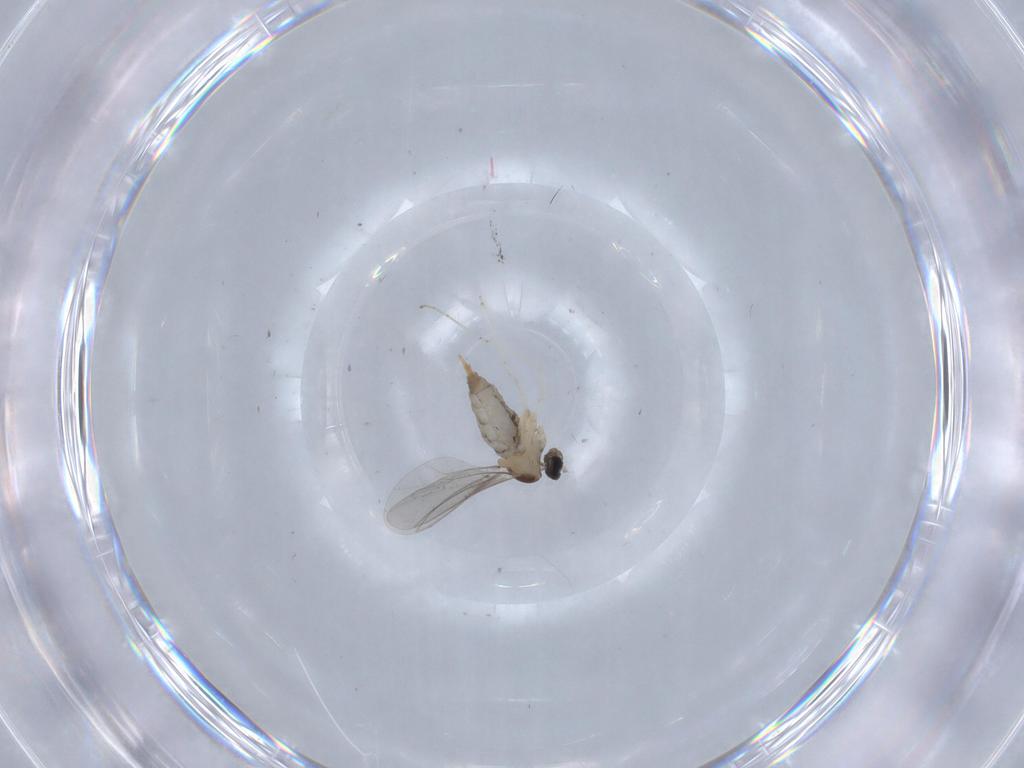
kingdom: Animalia
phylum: Arthropoda
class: Insecta
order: Diptera
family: Cecidomyiidae
